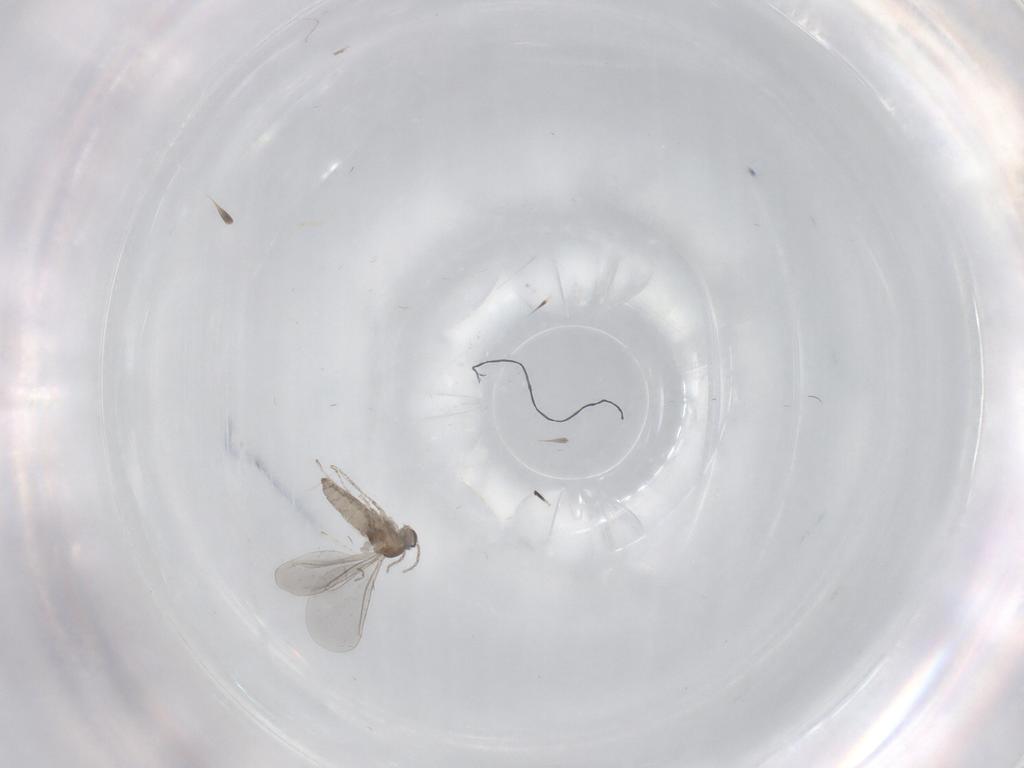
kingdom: Animalia
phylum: Arthropoda
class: Insecta
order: Diptera
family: Cecidomyiidae
